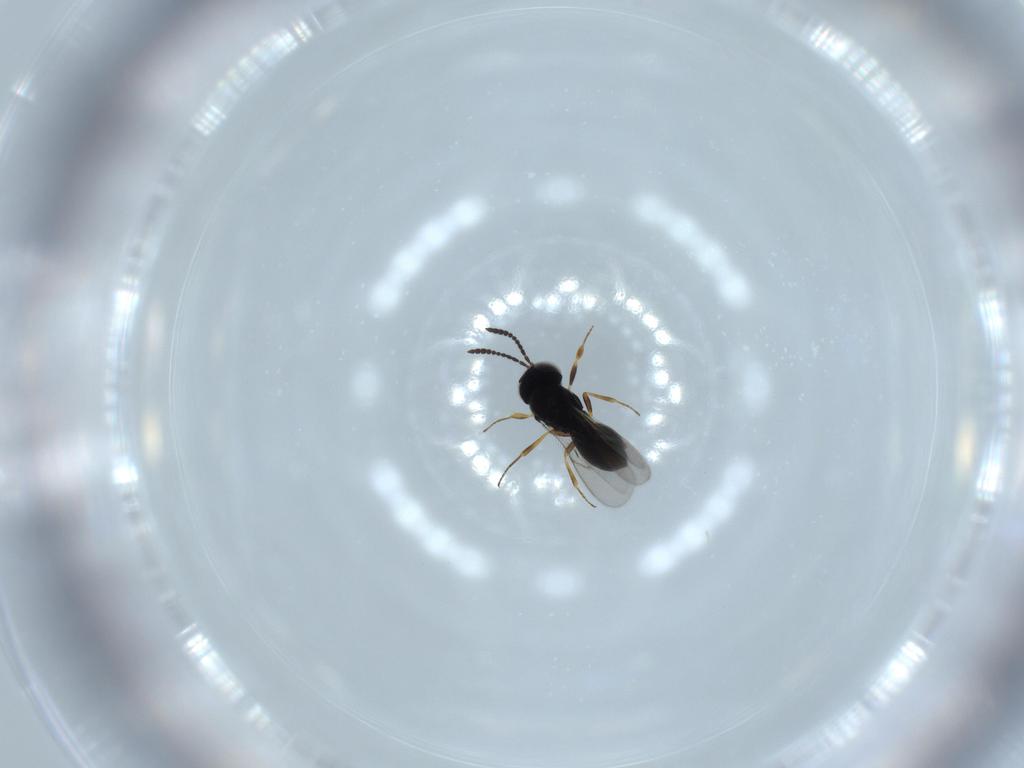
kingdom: Animalia
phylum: Arthropoda
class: Insecta
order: Hymenoptera
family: Scelionidae
